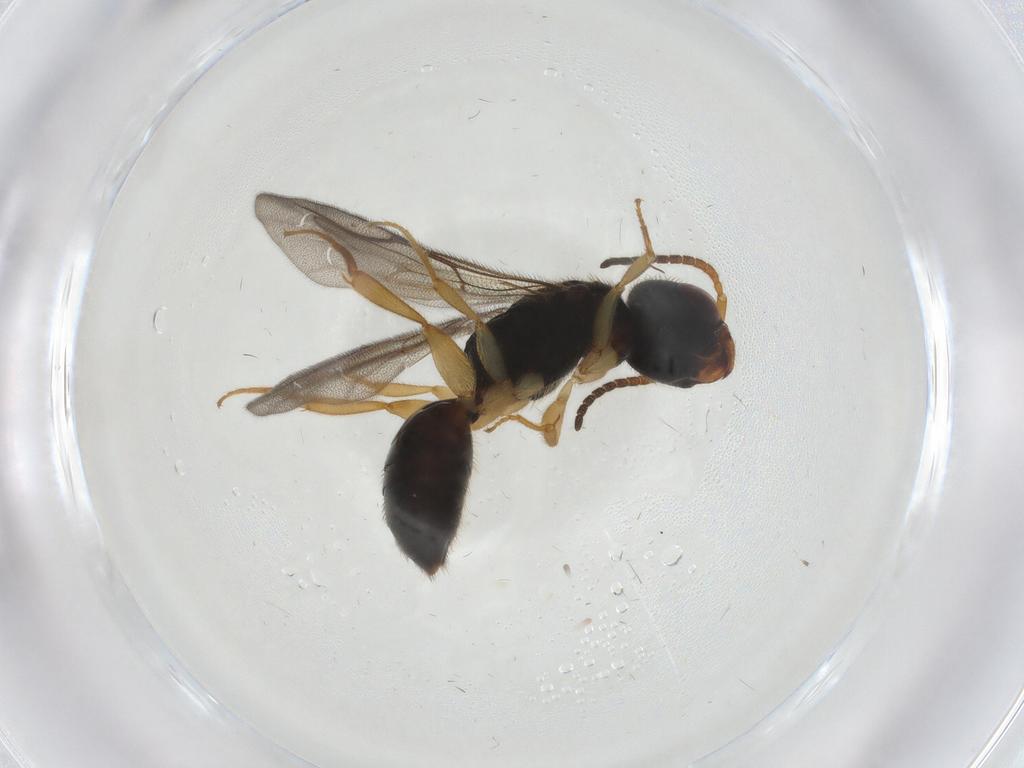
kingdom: Animalia
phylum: Arthropoda
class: Insecta
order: Hymenoptera
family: Bethylidae
